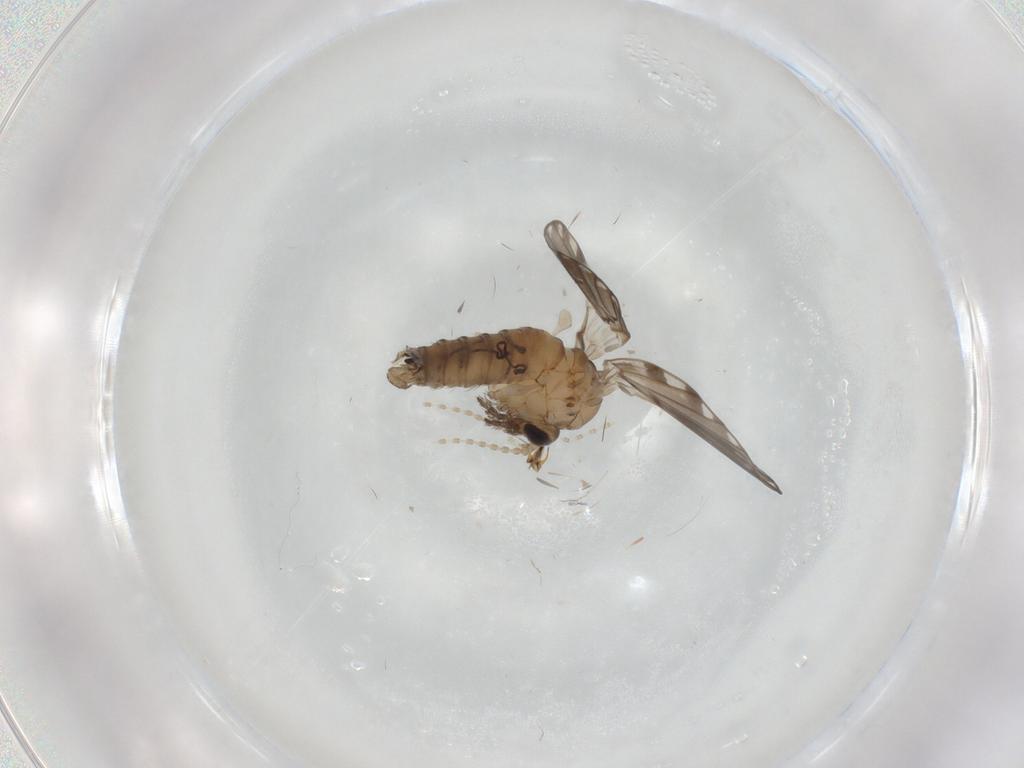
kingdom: Animalia
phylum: Arthropoda
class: Insecta
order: Diptera
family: Psychodidae
